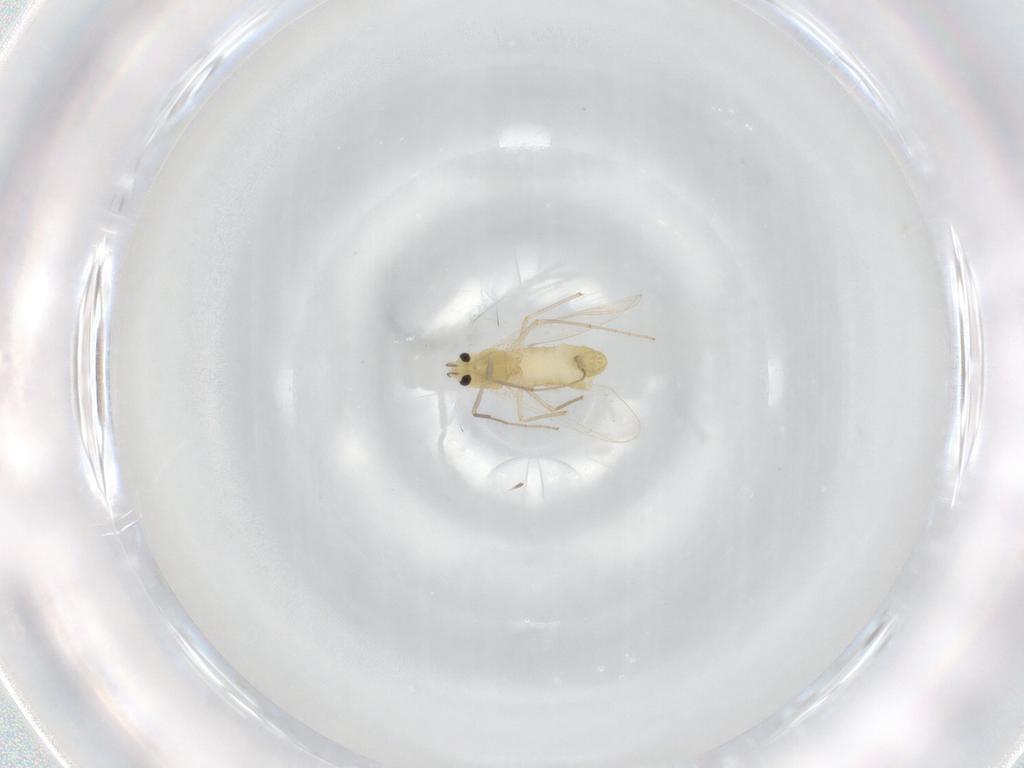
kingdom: Animalia
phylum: Arthropoda
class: Insecta
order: Diptera
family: Chironomidae
